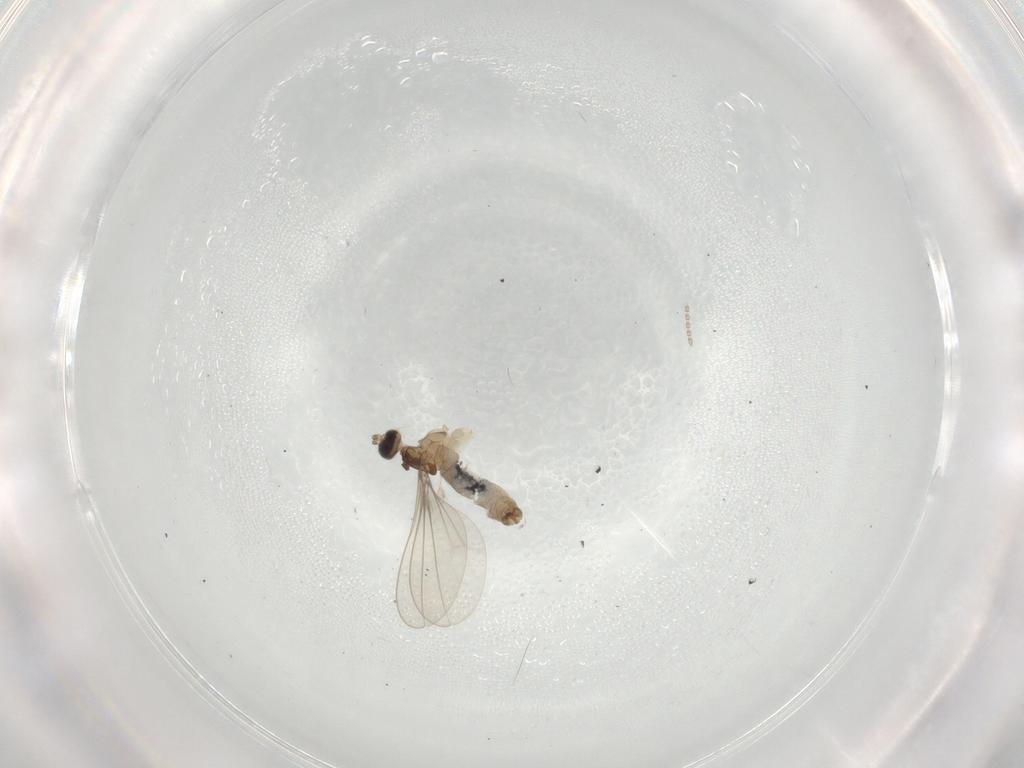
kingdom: Animalia
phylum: Arthropoda
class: Insecta
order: Diptera
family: Cecidomyiidae
